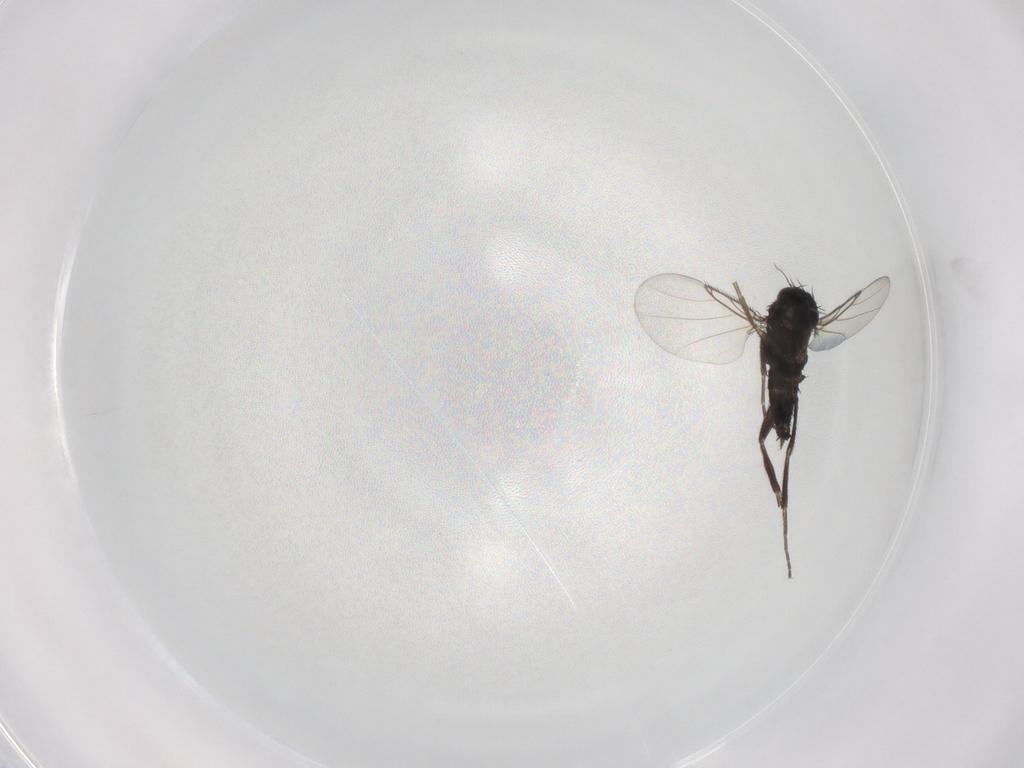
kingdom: Animalia
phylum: Arthropoda
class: Insecta
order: Diptera
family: Phoridae
